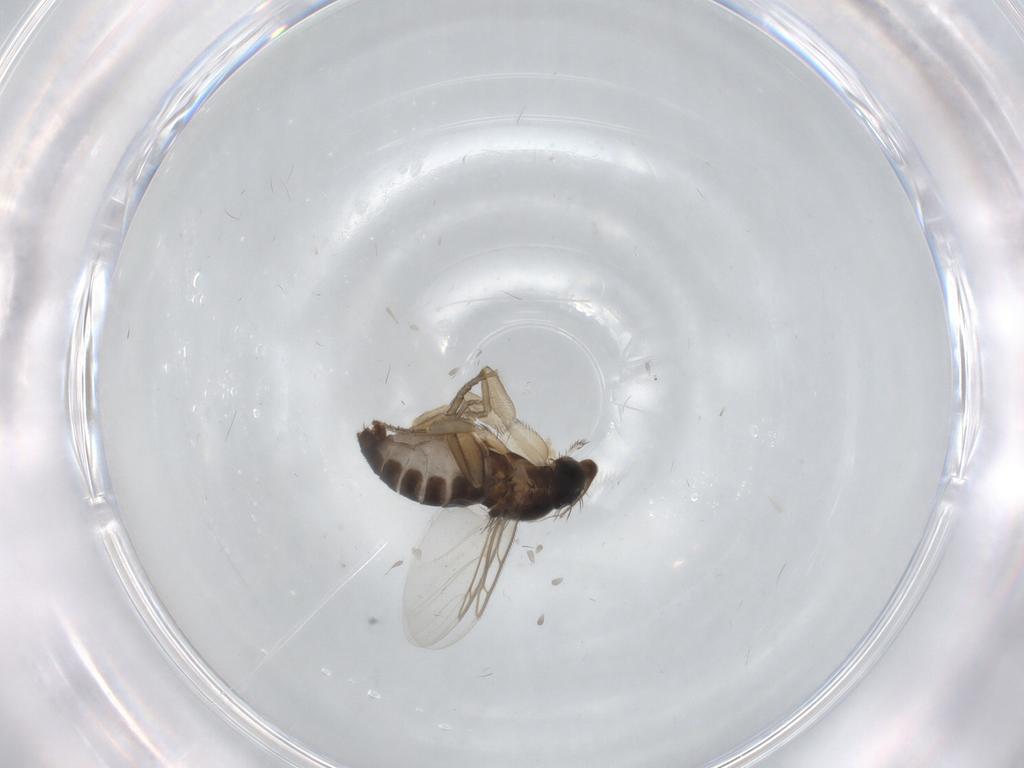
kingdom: Animalia
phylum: Arthropoda
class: Insecta
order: Diptera
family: Phoridae
